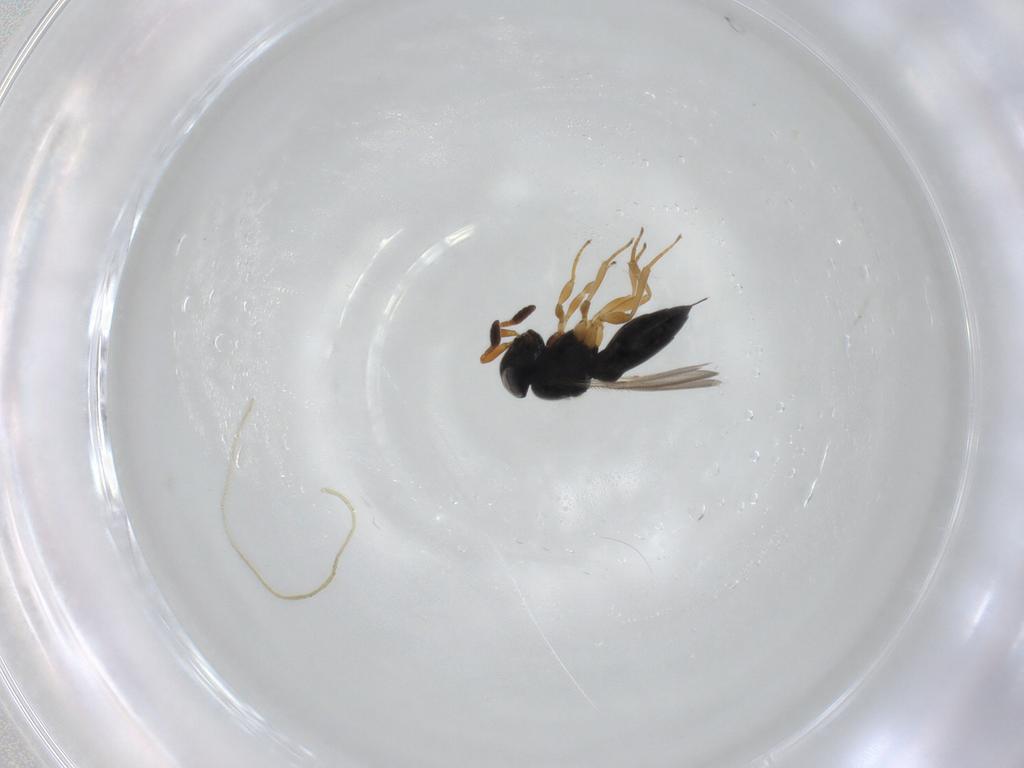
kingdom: Animalia
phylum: Arthropoda
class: Insecta
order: Hymenoptera
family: Scelionidae
